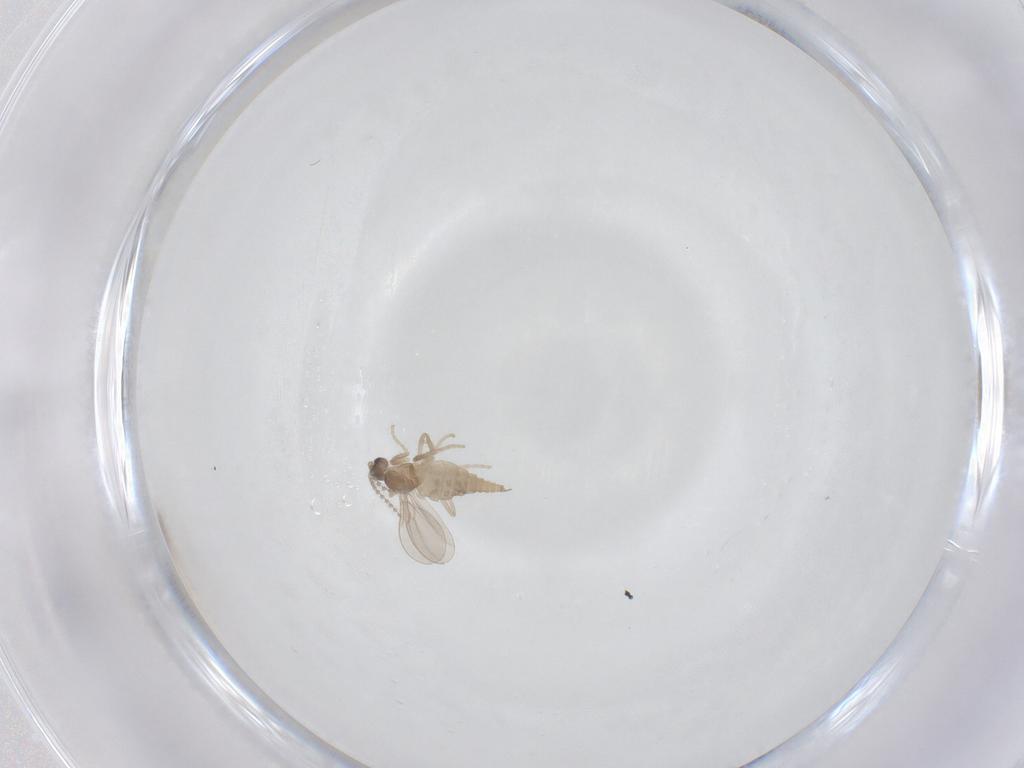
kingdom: Animalia
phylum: Arthropoda
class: Insecta
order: Diptera
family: Cecidomyiidae
